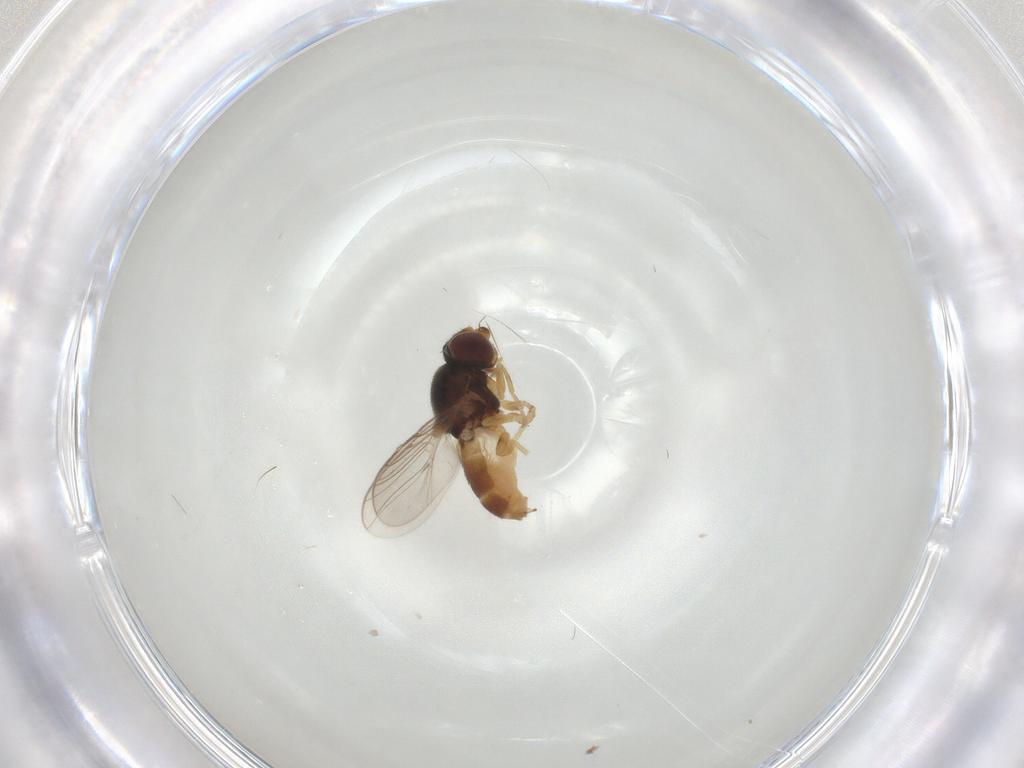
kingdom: Animalia
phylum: Arthropoda
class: Insecta
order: Diptera
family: Chloropidae
